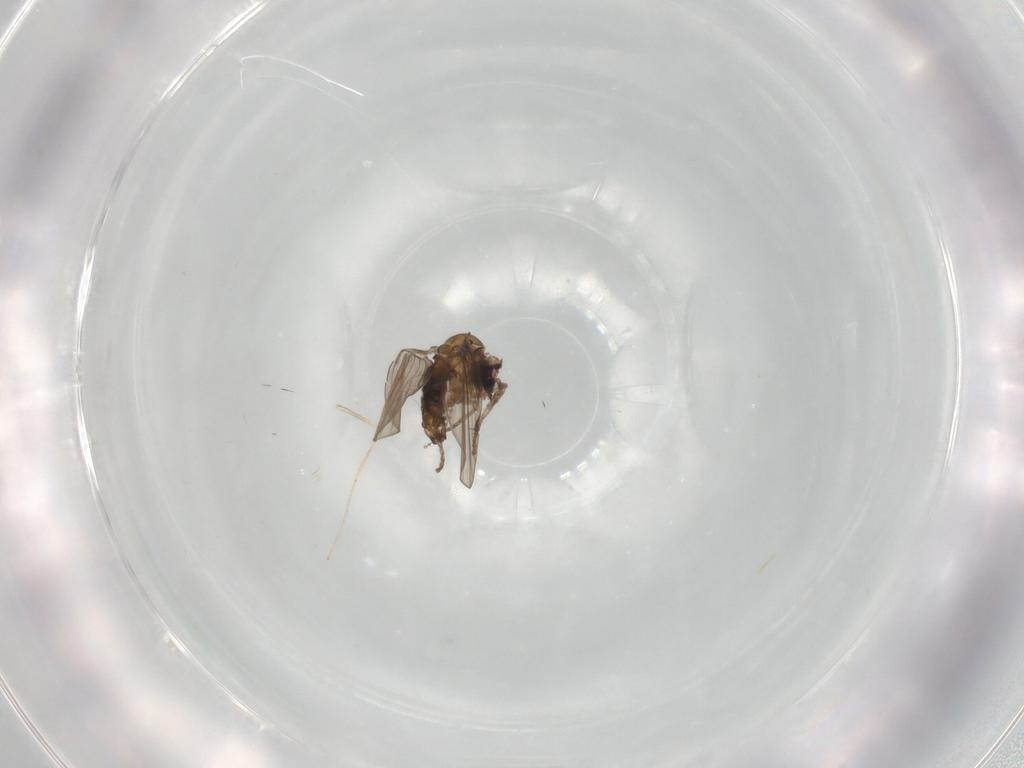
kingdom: Animalia
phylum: Arthropoda
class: Insecta
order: Diptera
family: Psychodidae
